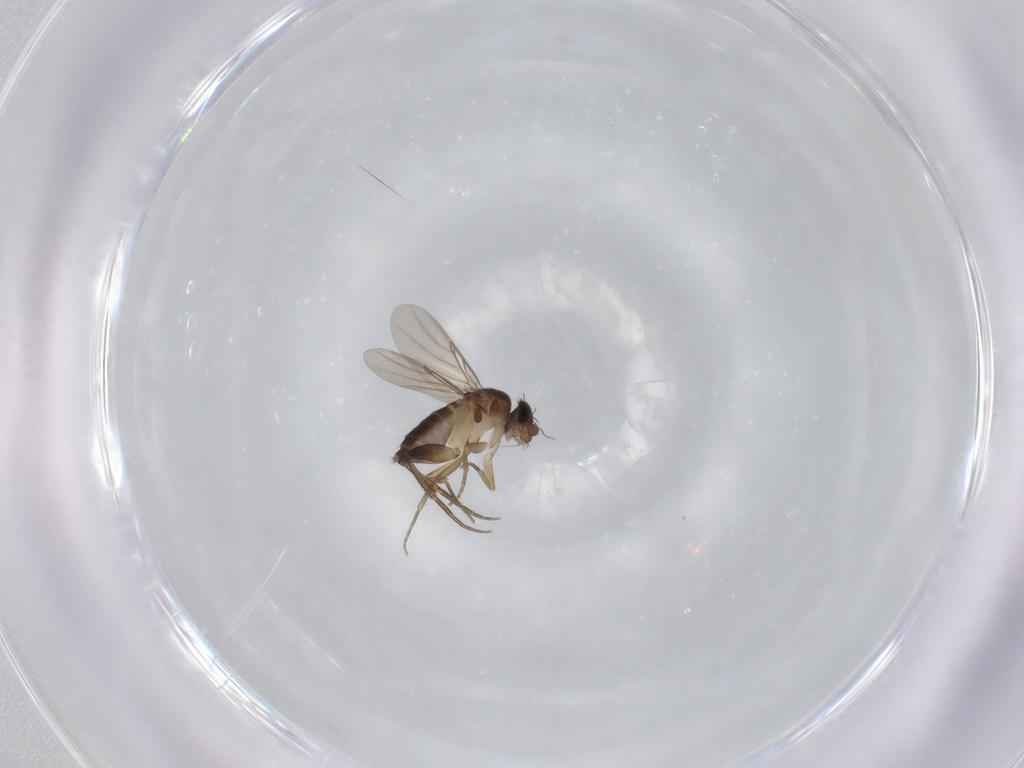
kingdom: Animalia
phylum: Arthropoda
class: Insecta
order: Diptera
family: Phoridae
